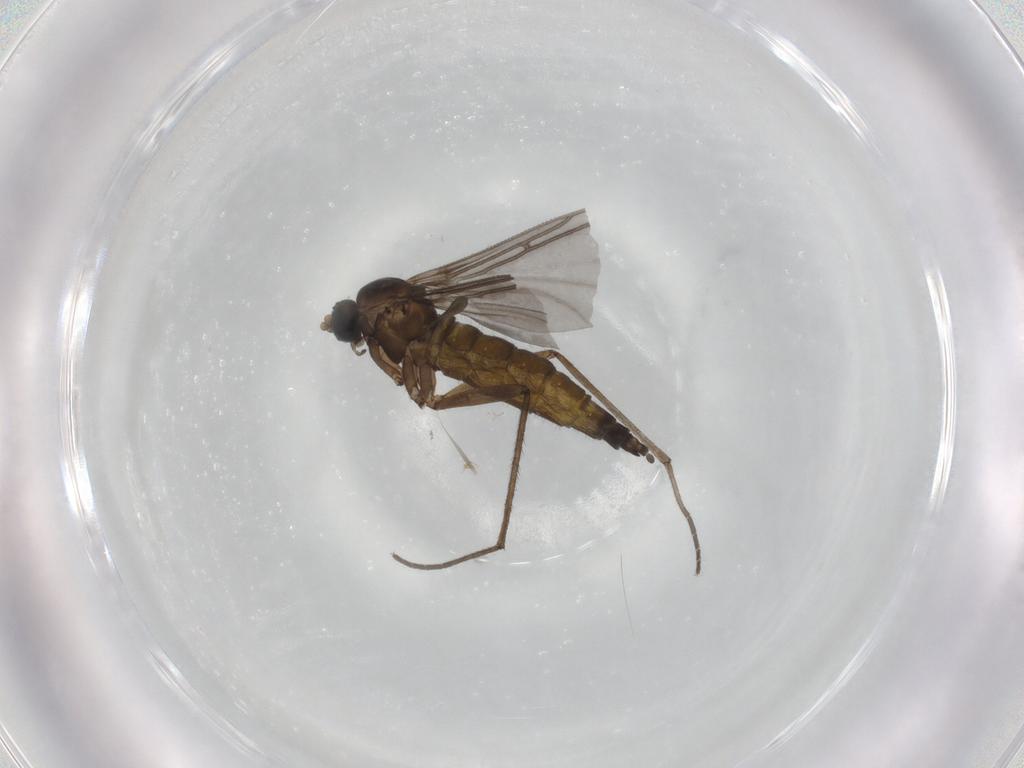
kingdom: Animalia
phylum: Arthropoda
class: Insecta
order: Diptera
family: Sciaridae
